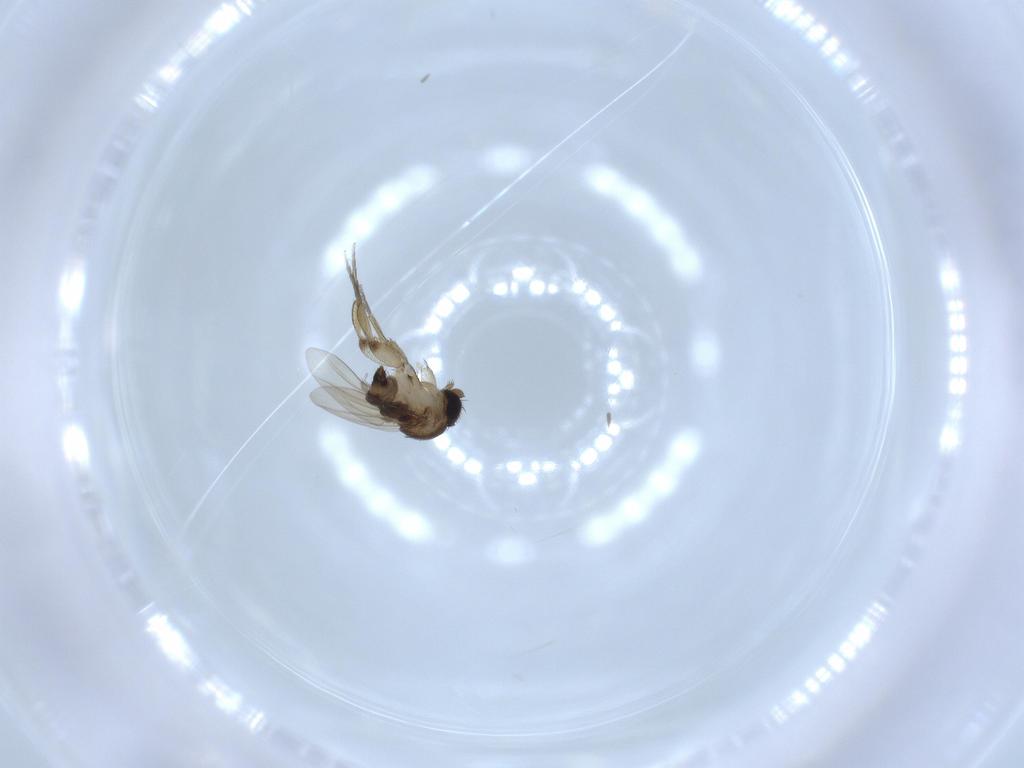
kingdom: Animalia
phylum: Arthropoda
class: Insecta
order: Diptera
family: Phoridae
